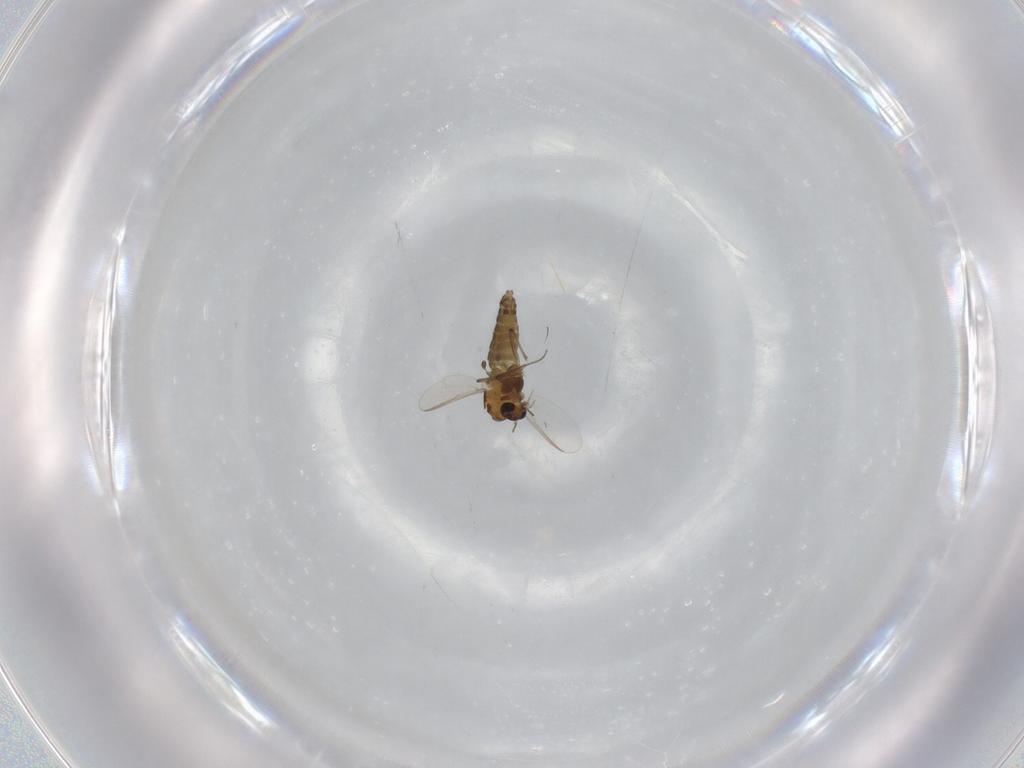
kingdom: Animalia
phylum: Arthropoda
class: Insecta
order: Diptera
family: Chironomidae
